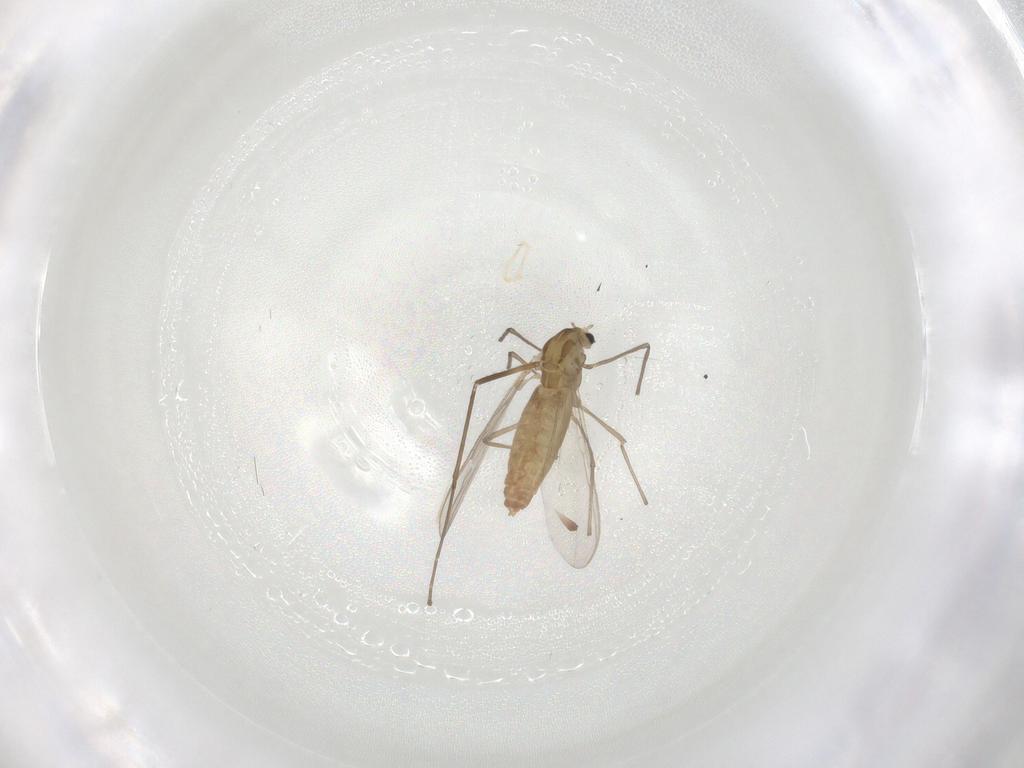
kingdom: Animalia
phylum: Arthropoda
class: Insecta
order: Diptera
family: Chironomidae
